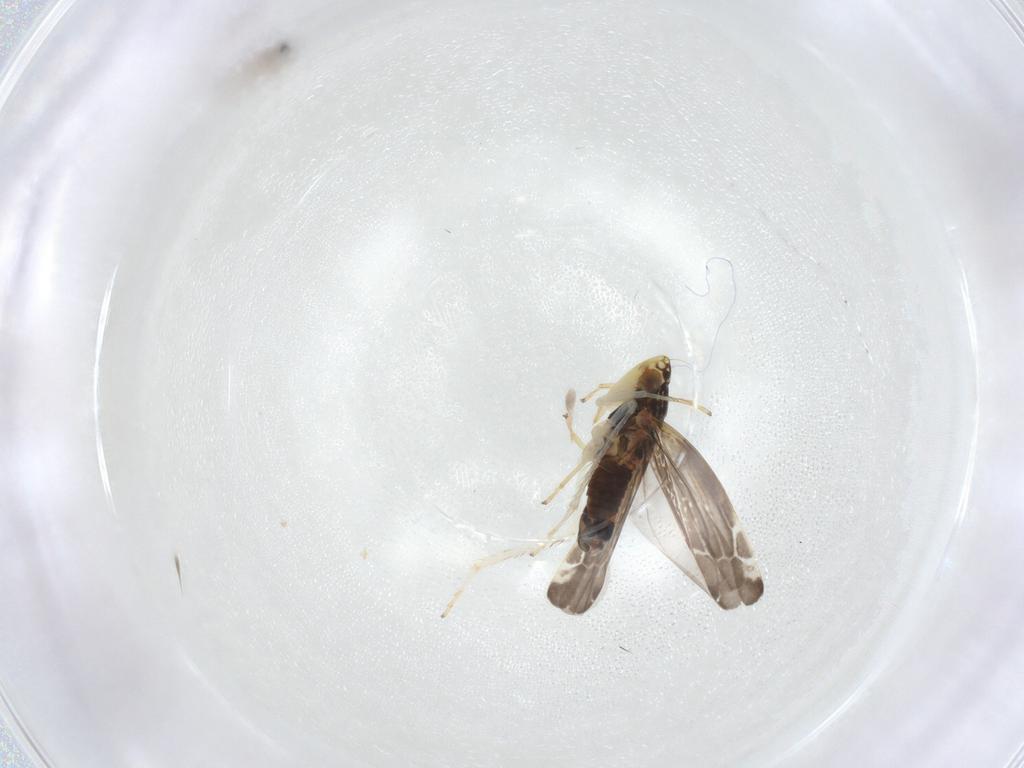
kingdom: Animalia
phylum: Arthropoda
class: Insecta
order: Hemiptera
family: Cicadellidae
